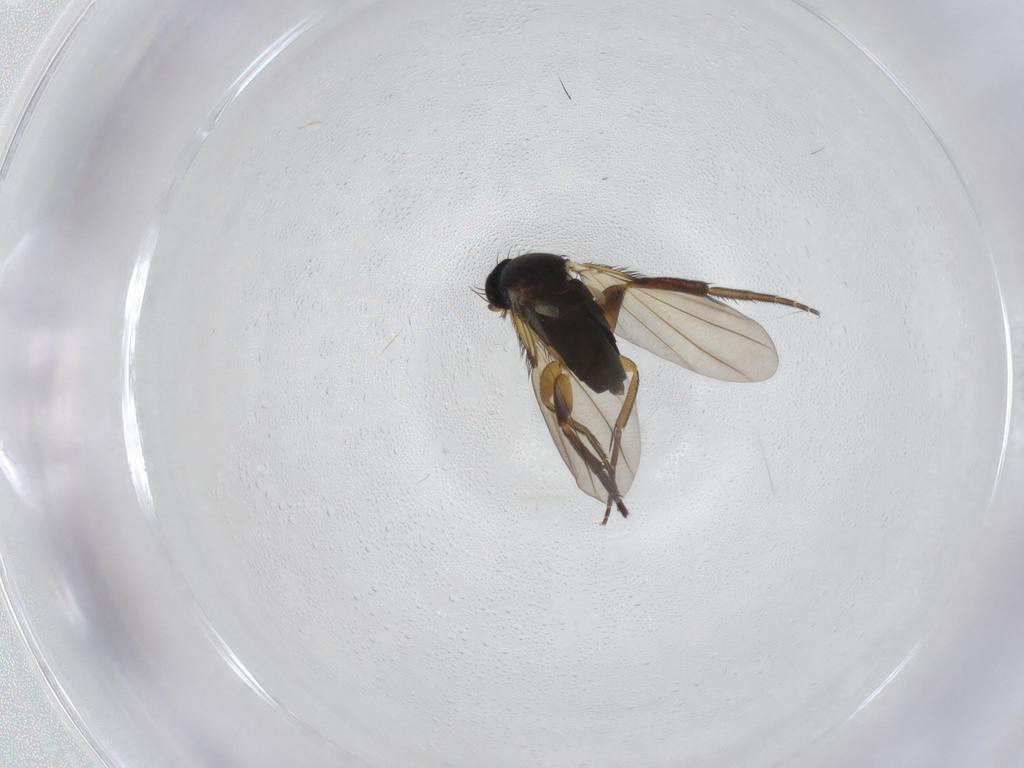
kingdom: Animalia
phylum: Arthropoda
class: Insecta
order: Diptera
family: Phoridae
